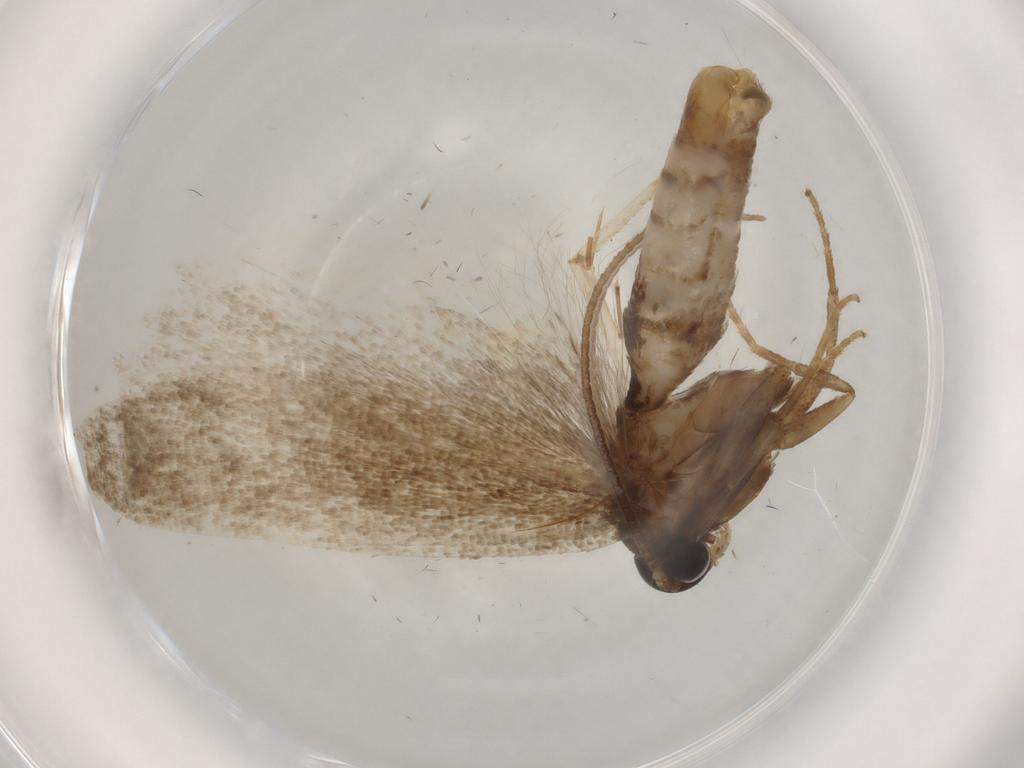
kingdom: Animalia
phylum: Arthropoda
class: Insecta
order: Lepidoptera
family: Gelechiidae
